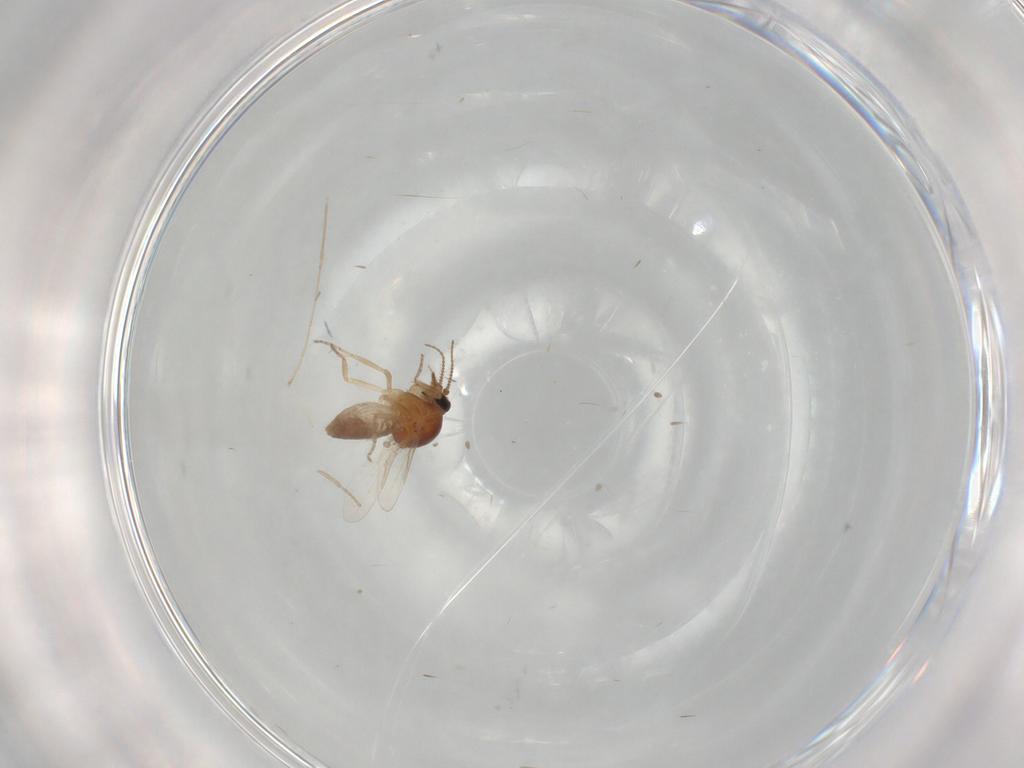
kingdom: Animalia
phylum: Arthropoda
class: Insecta
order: Diptera
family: Ceratopogonidae
